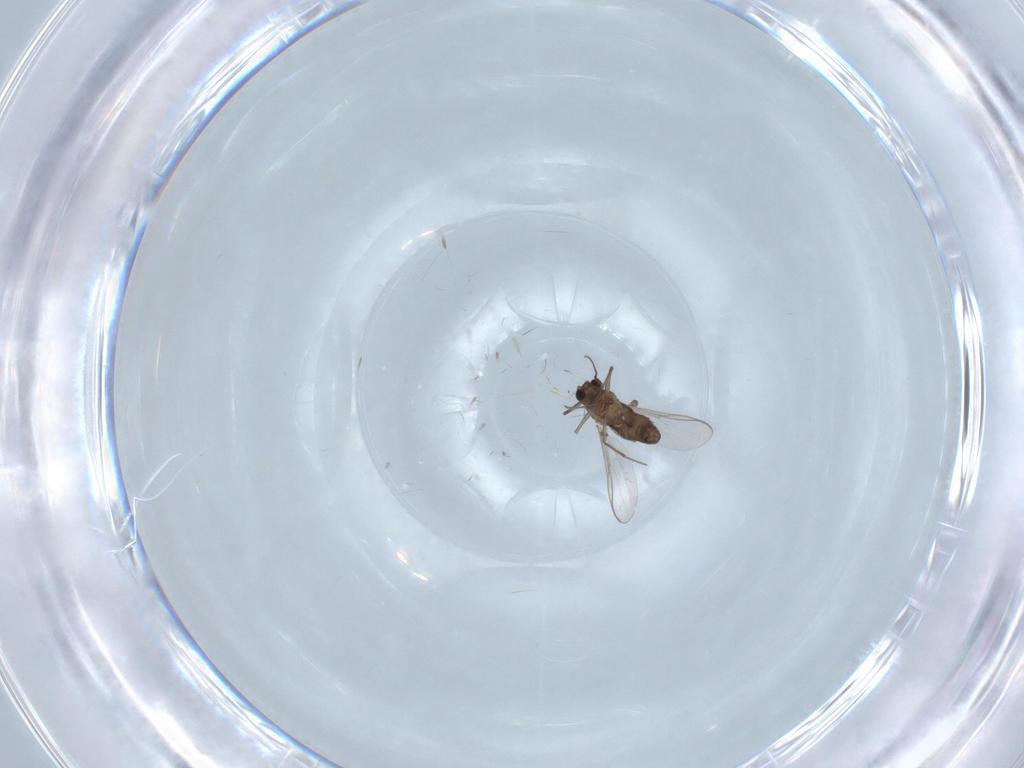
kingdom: Animalia
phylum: Arthropoda
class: Insecta
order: Diptera
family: Chironomidae
